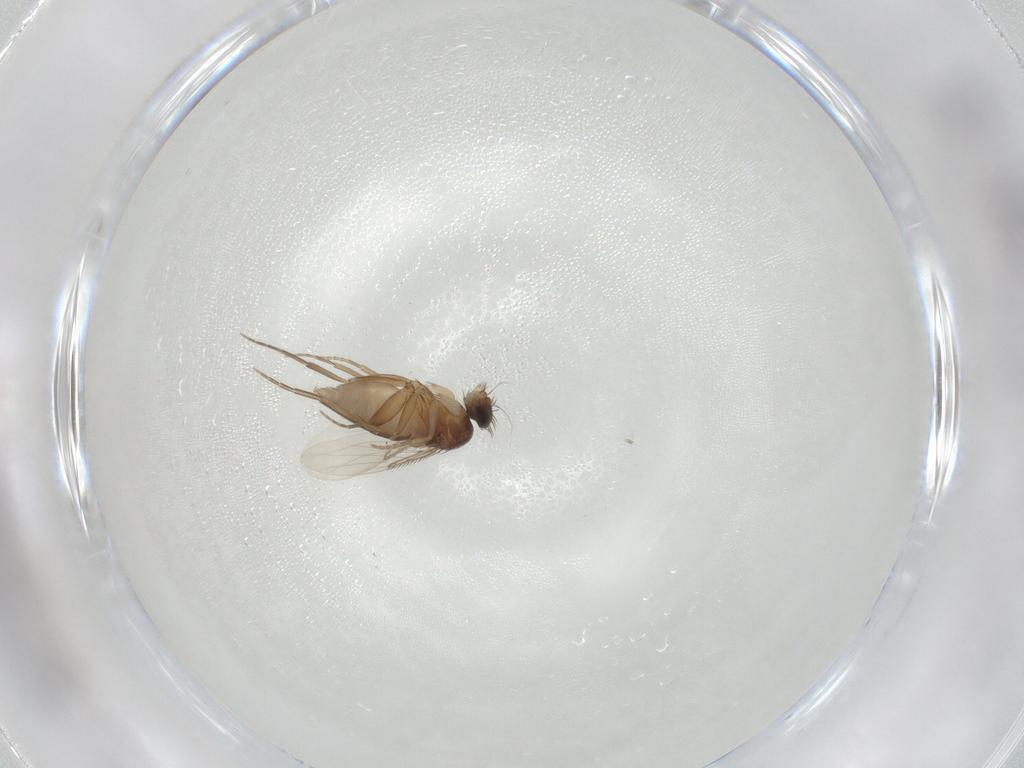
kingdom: Animalia
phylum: Arthropoda
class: Insecta
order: Diptera
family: Phoridae
